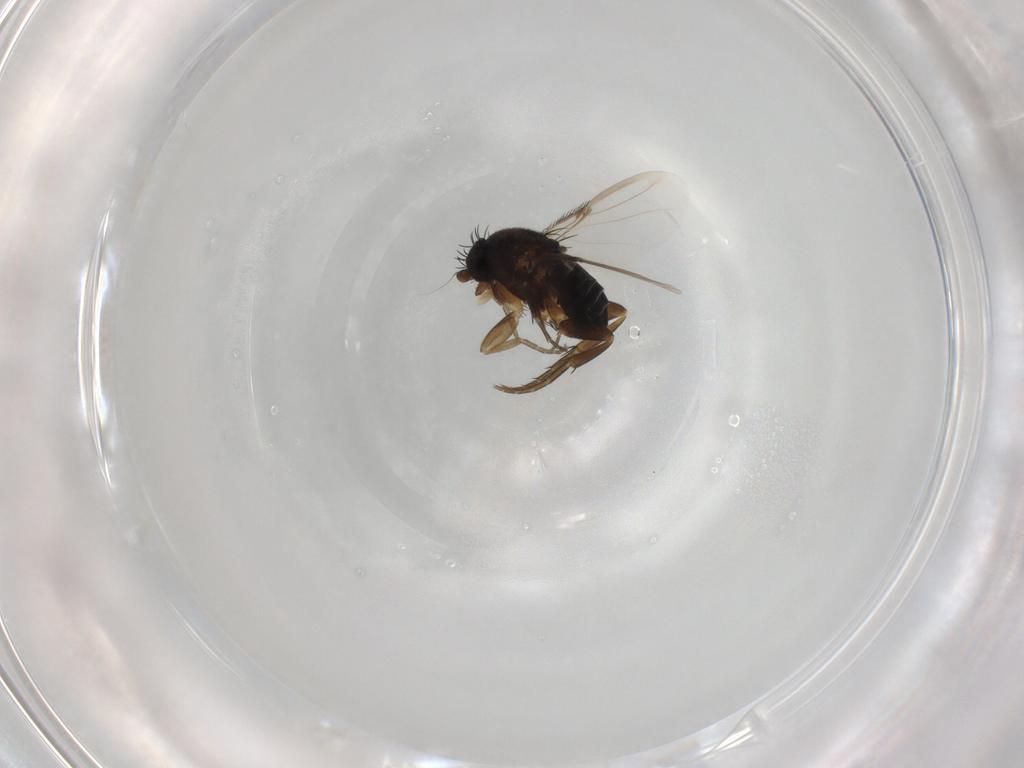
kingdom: Animalia
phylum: Arthropoda
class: Insecta
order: Diptera
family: Phoridae
